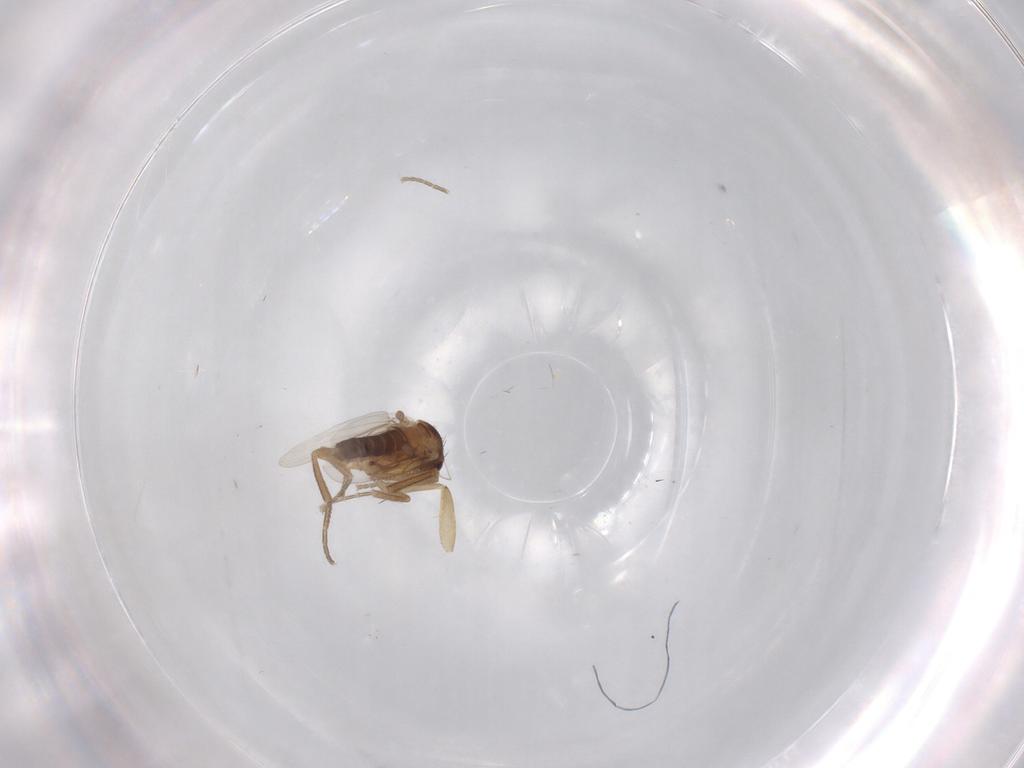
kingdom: Animalia
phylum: Arthropoda
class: Insecta
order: Diptera
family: Phoridae
